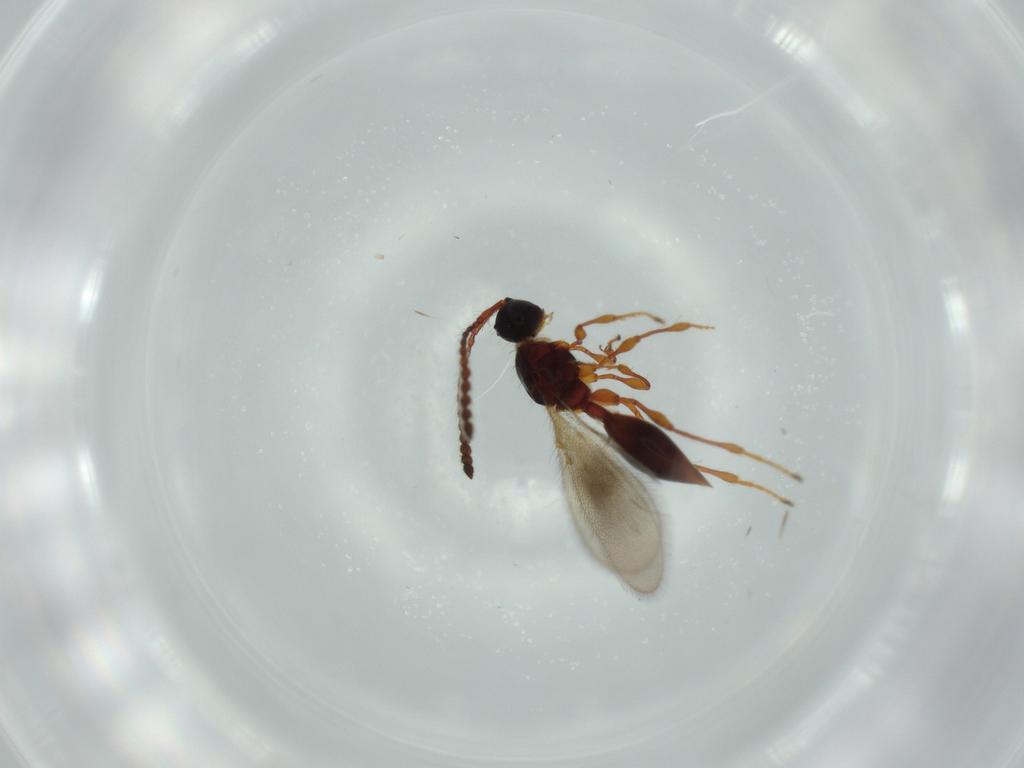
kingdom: Animalia
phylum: Arthropoda
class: Insecta
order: Hymenoptera
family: Diapriidae
